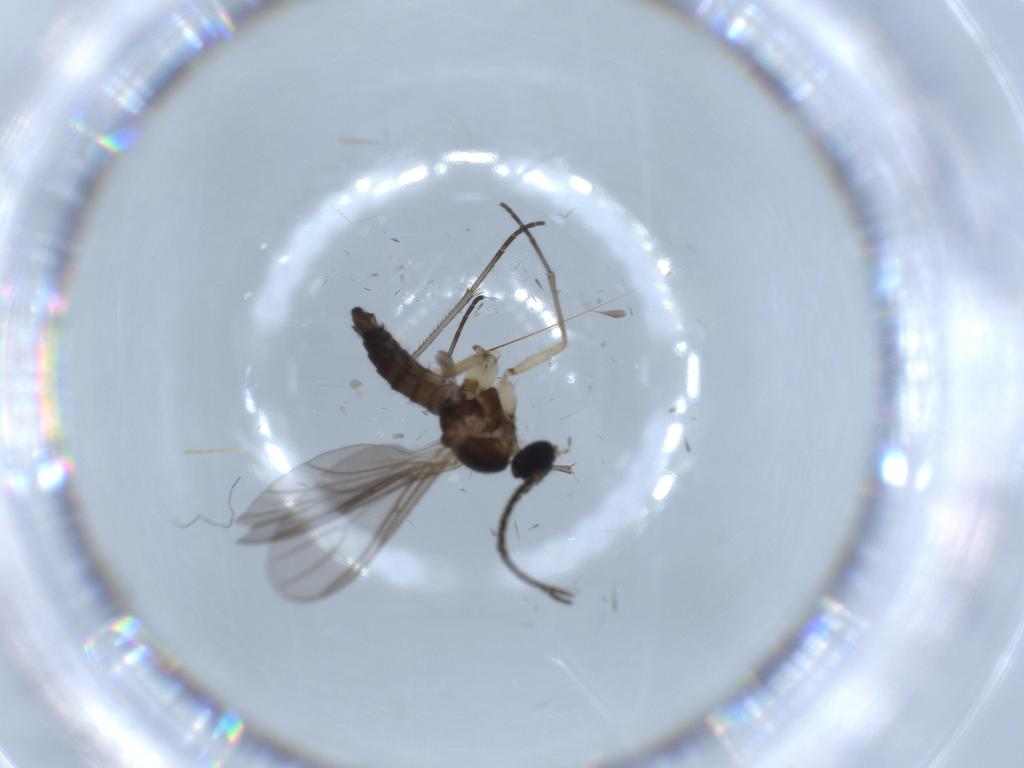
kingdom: Animalia
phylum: Arthropoda
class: Insecta
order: Diptera
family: Sciaridae
